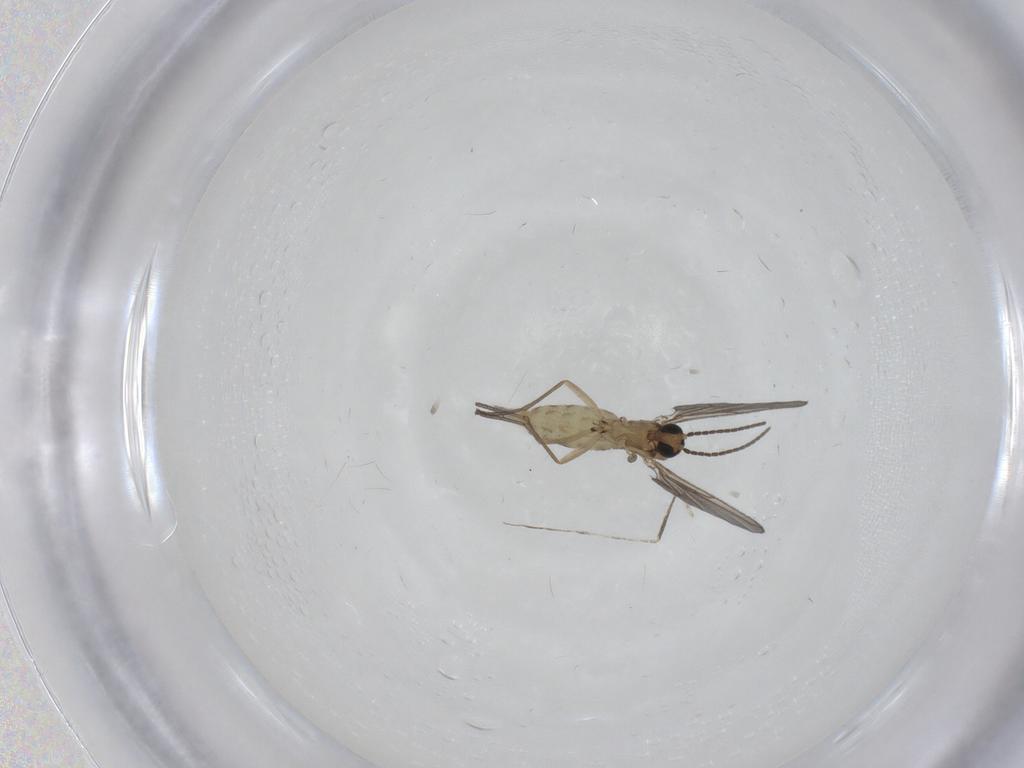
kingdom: Animalia
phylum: Arthropoda
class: Insecta
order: Diptera
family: Sciaridae
